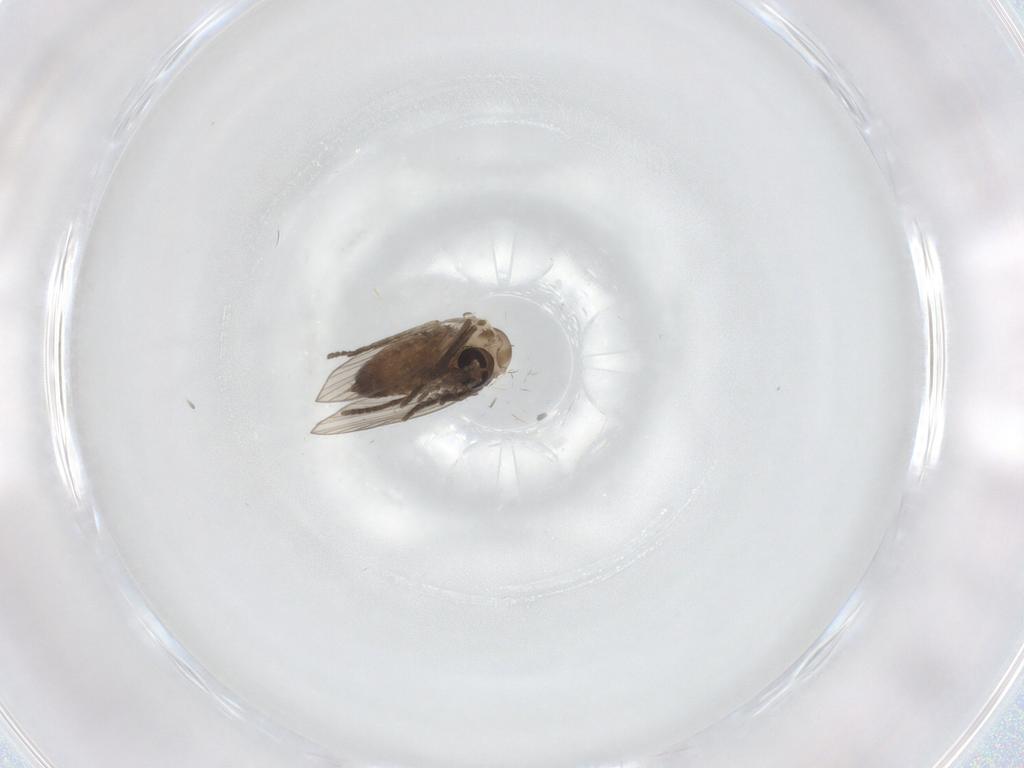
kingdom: Animalia
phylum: Arthropoda
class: Insecta
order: Diptera
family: Psychodidae
